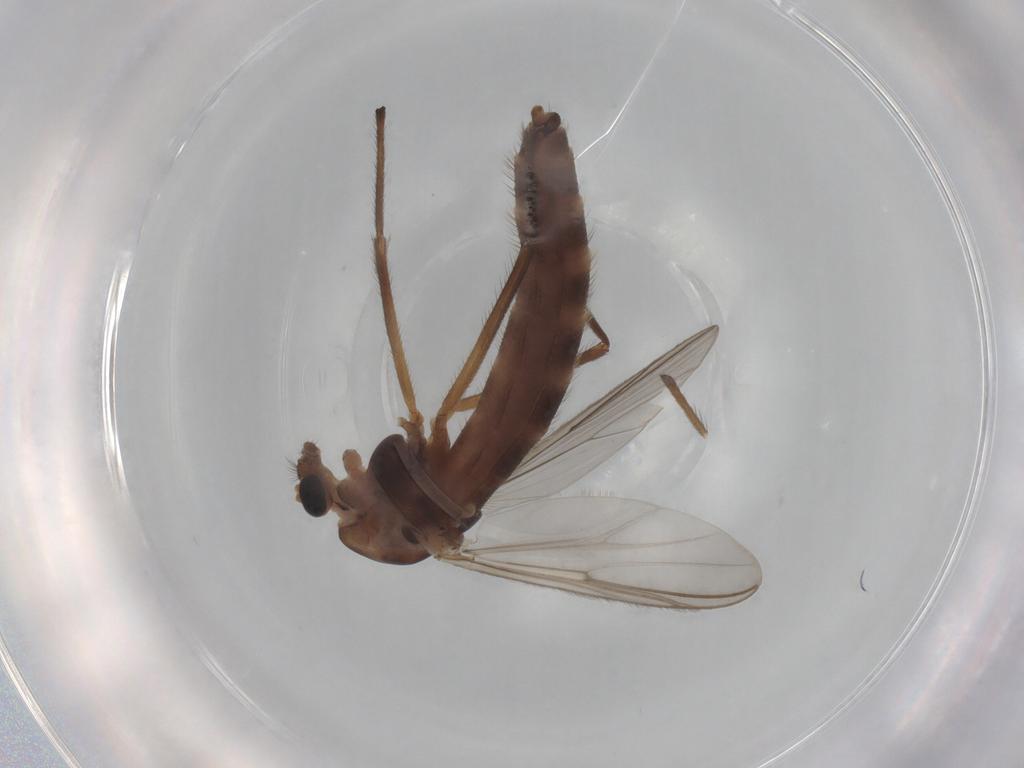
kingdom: Animalia
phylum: Arthropoda
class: Insecta
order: Diptera
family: Chironomidae
